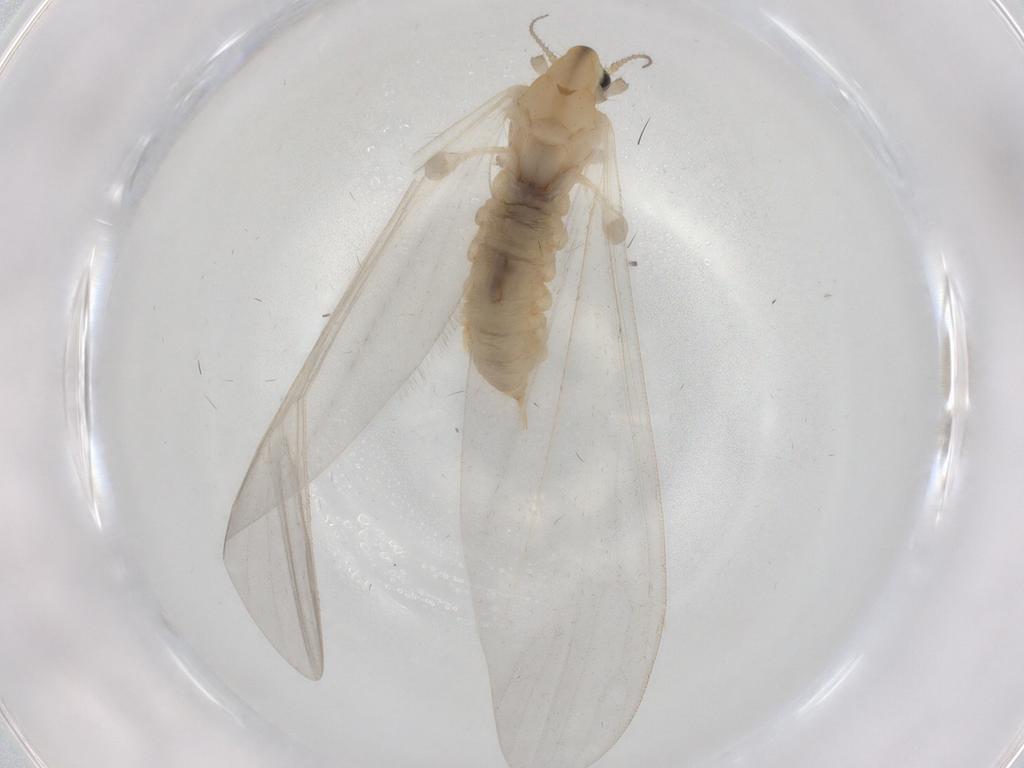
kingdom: Animalia
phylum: Arthropoda
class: Insecta
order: Diptera
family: Limoniidae
